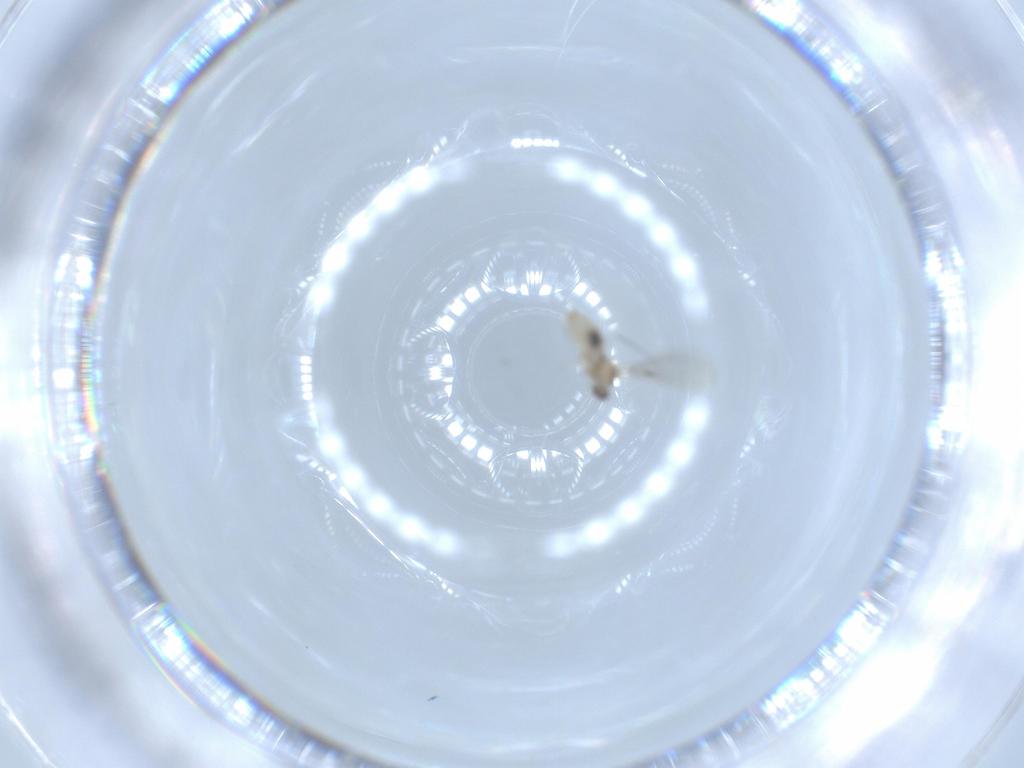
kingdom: Animalia
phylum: Arthropoda
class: Insecta
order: Diptera
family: Cecidomyiidae
